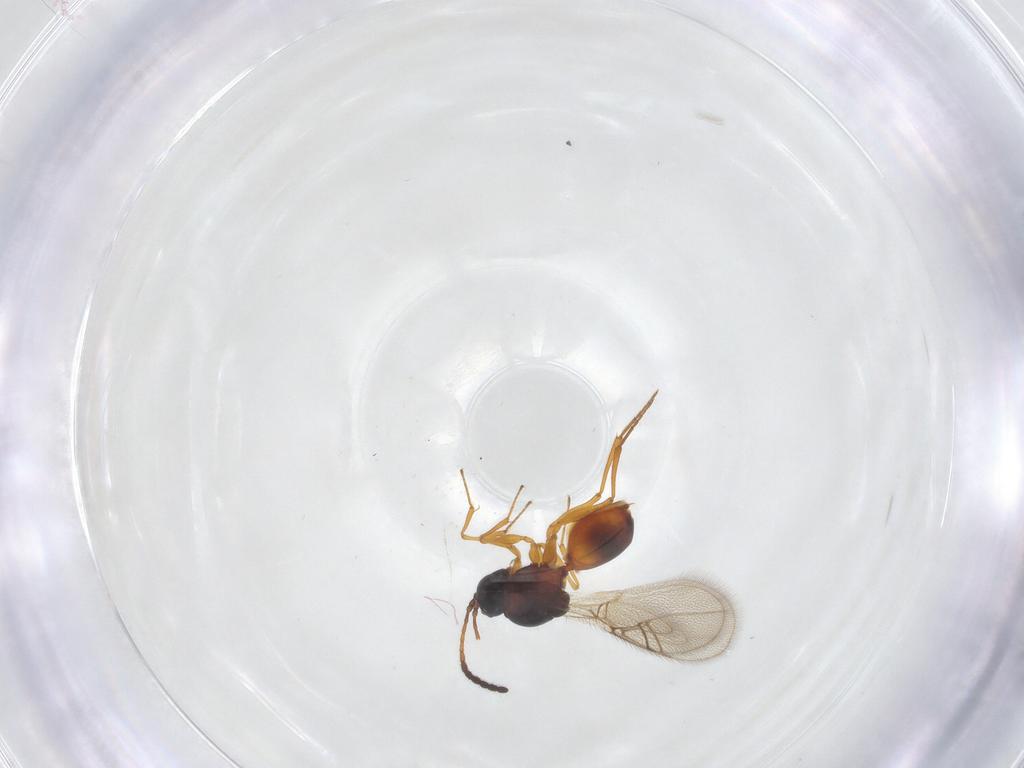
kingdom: Animalia
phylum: Arthropoda
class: Insecta
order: Hymenoptera
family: Figitidae
